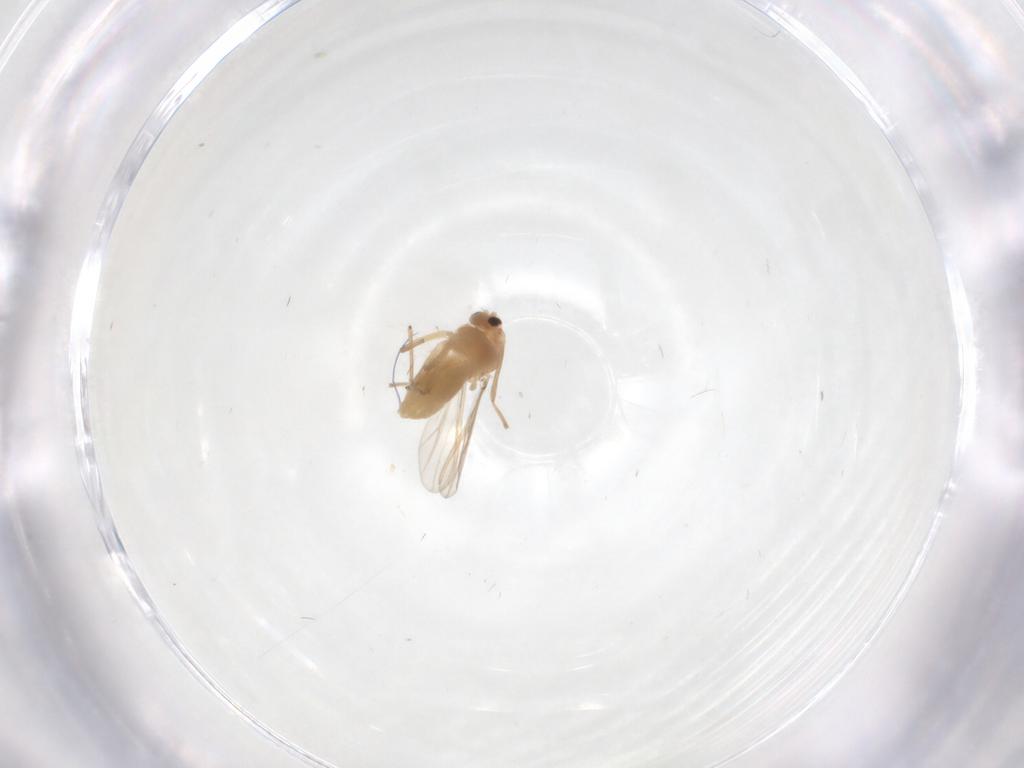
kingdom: Animalia
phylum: Arthropoda
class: Insecta
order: Diptera
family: Chironomidae
